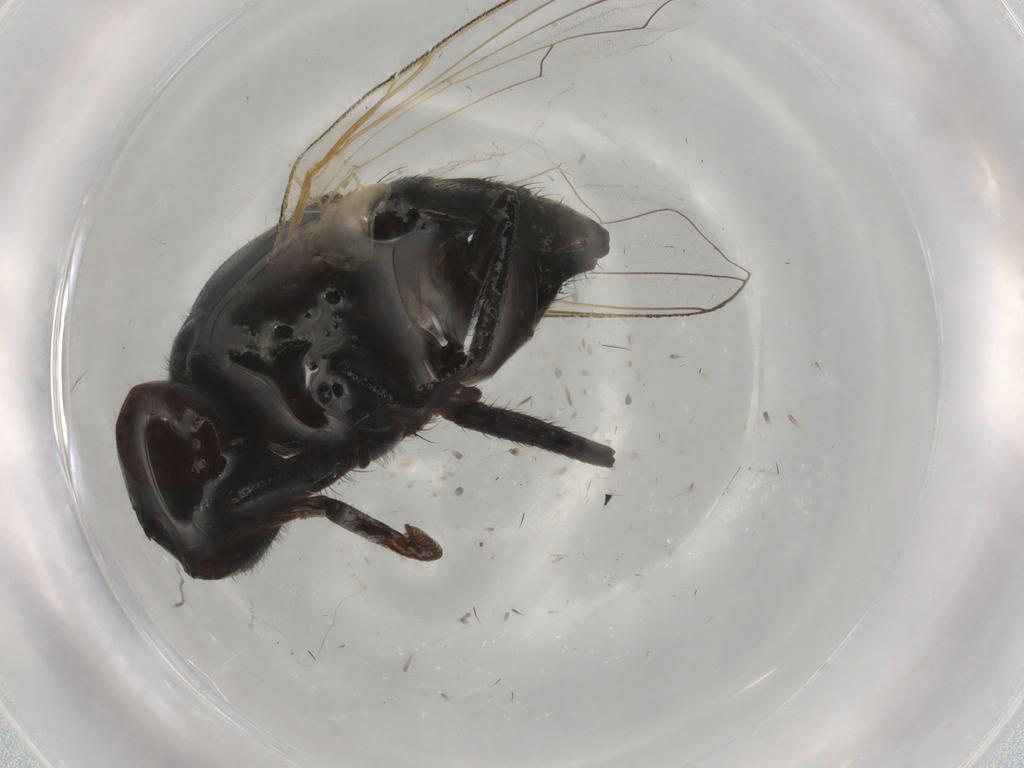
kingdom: Animalia
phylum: Arthropoda
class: Insecta
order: Diptera
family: Muscidae
